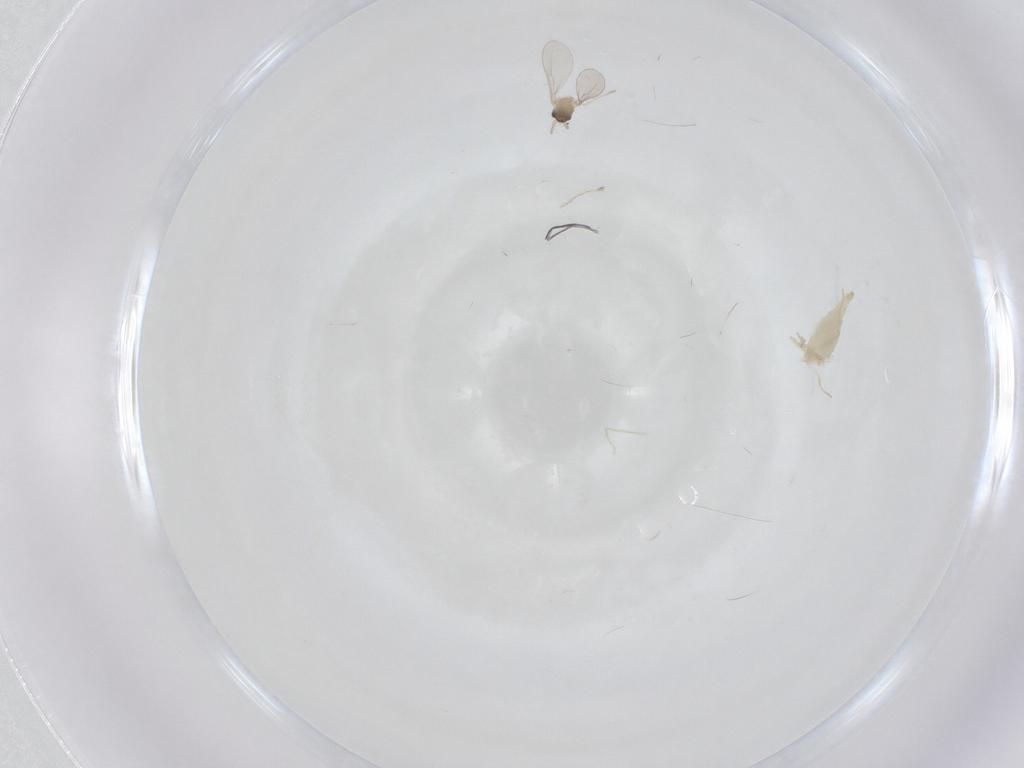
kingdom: Animalia
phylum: Arthropoda
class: Insecta
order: Diptera
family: Cecidomyiidae
